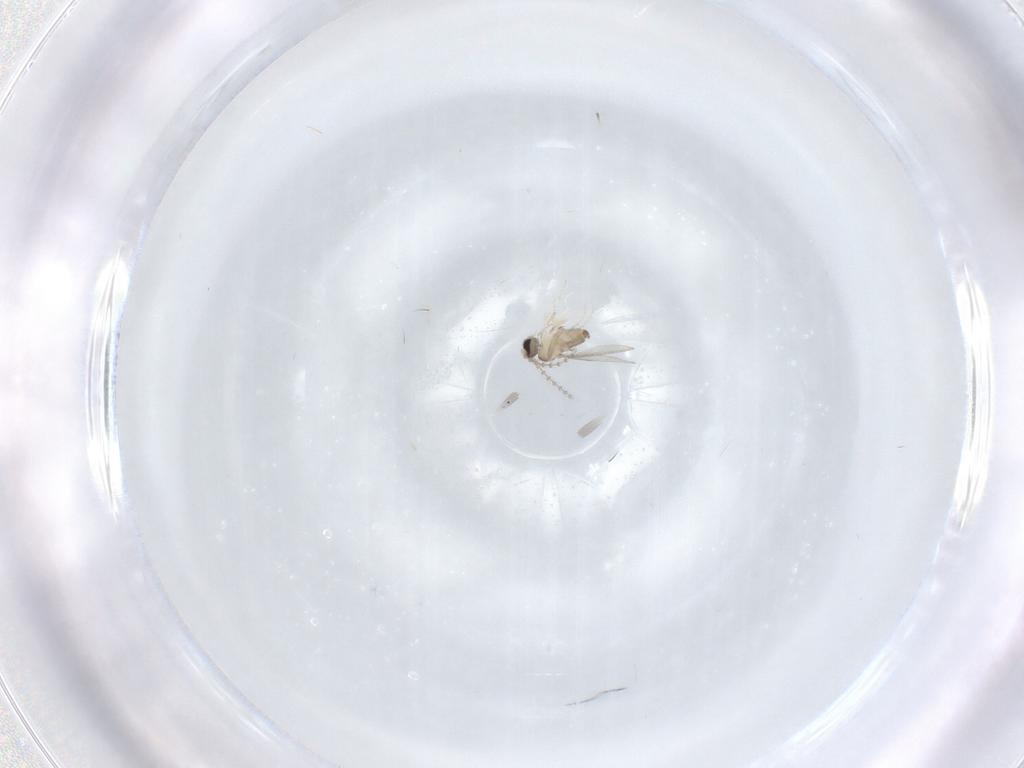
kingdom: Animalia
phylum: Arthropoda
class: Insecta
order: Diptera
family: Cecidomyiidae
